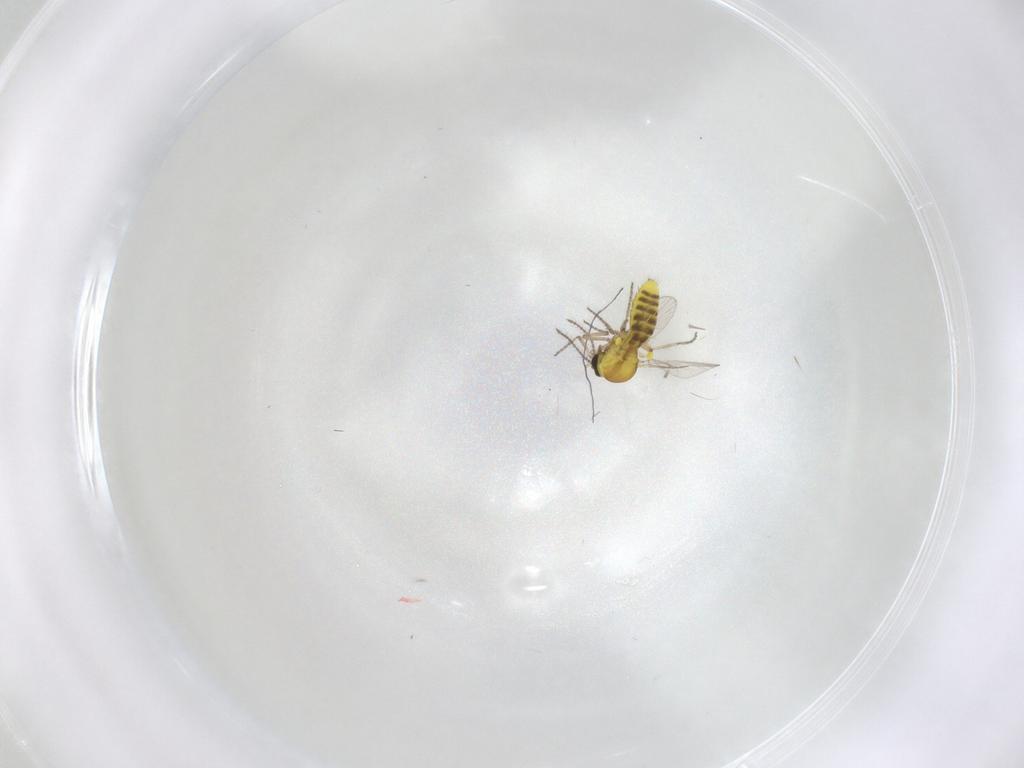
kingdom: Animalia
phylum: Arthropoda
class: Insecta
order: Diptera
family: Ceratopogonidae
